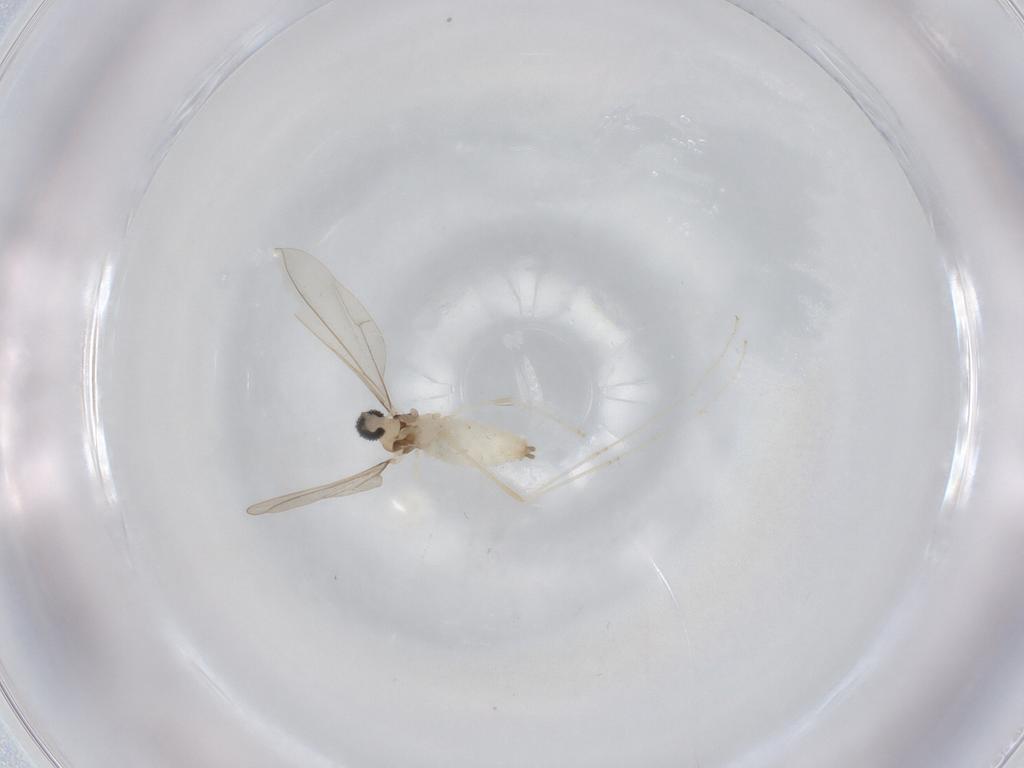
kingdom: Animalia
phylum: Arthropoda
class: Insecta
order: Diptera
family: Cecidomyiidae
